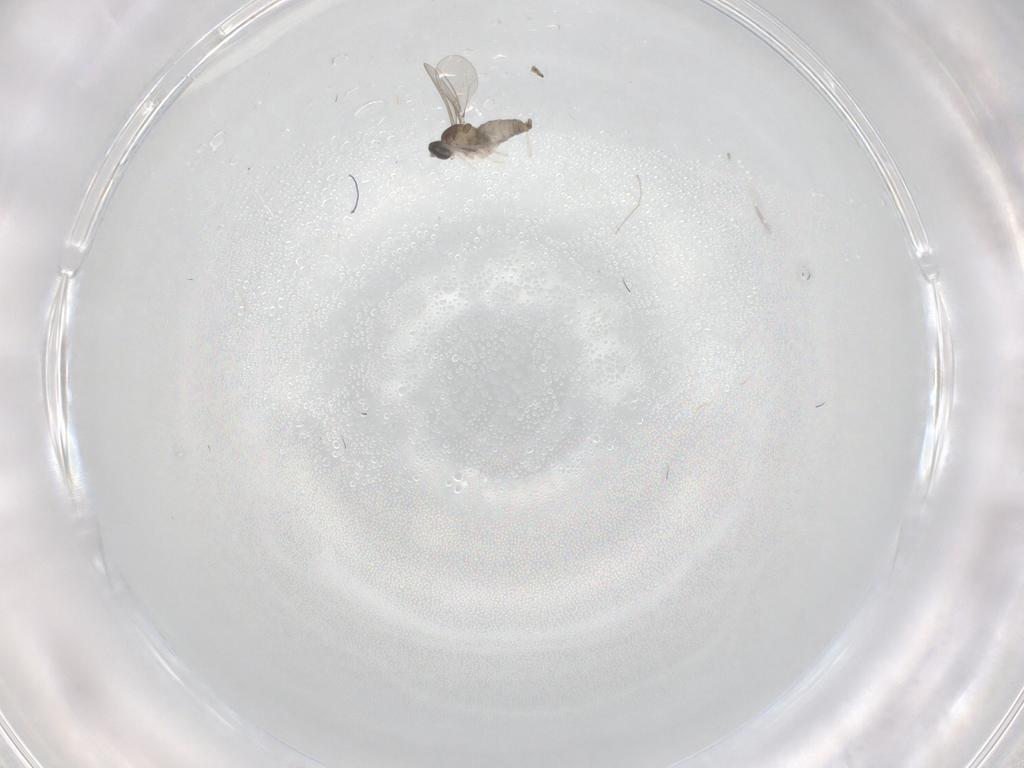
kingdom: Animalia
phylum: Arthropoda
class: Insecta
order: Diptera
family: Cecidomyiidae
